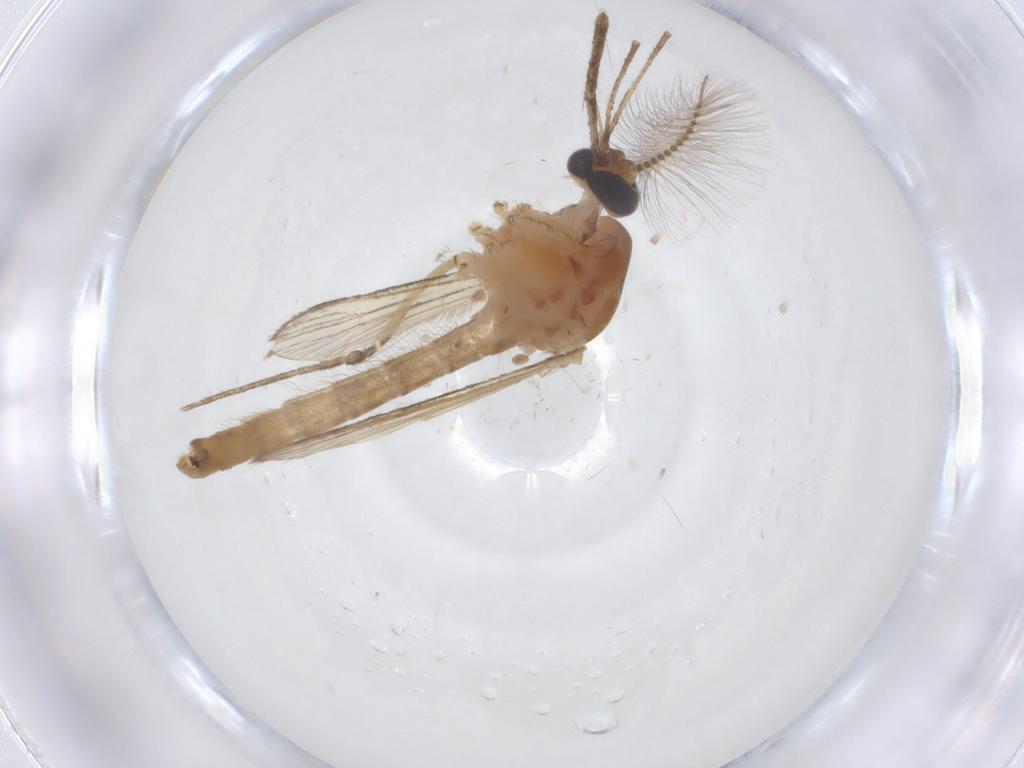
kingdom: Animalia
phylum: Arthropoda
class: Insecta
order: Diptera
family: Culicidae
